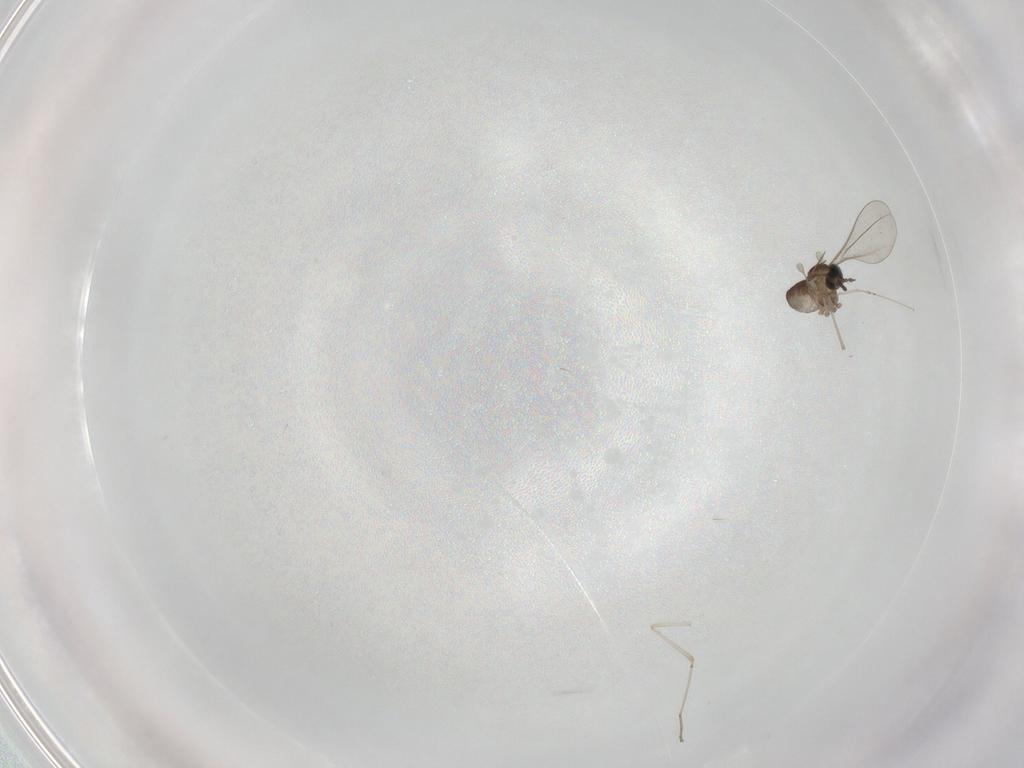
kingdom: Animalia
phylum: Arthropoda
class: Insecta
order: Diptera
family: Cecidomyiidae
